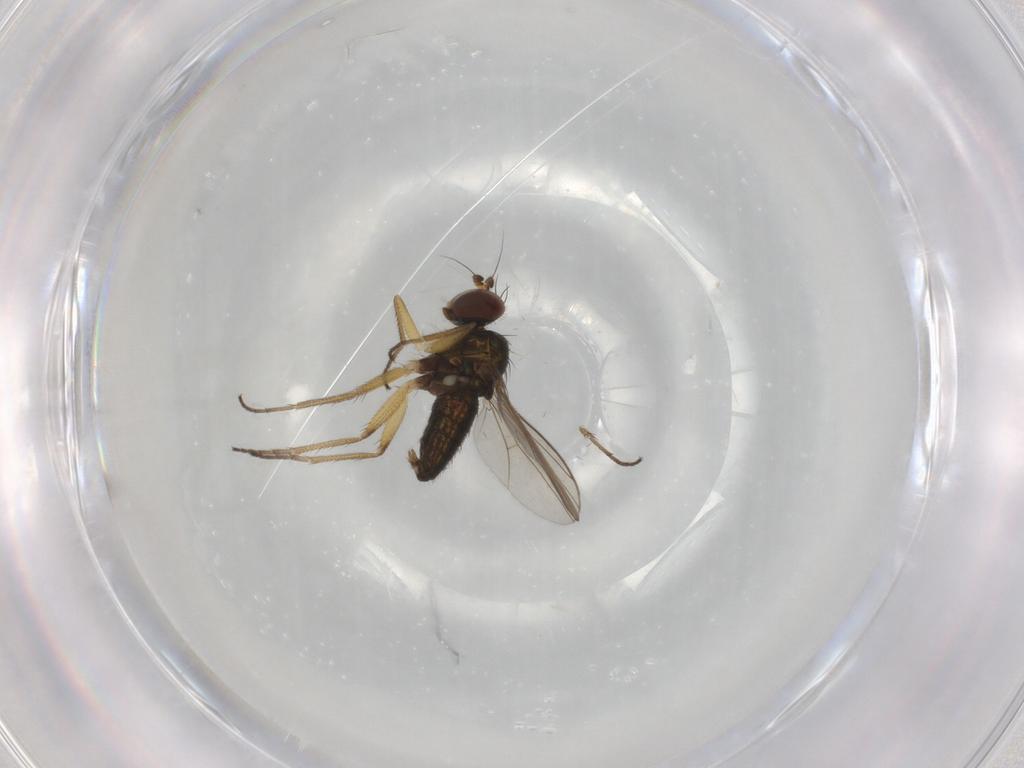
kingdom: Animalia
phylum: Arthropoda
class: Insecta
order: Diptera
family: Dolichopodidae
